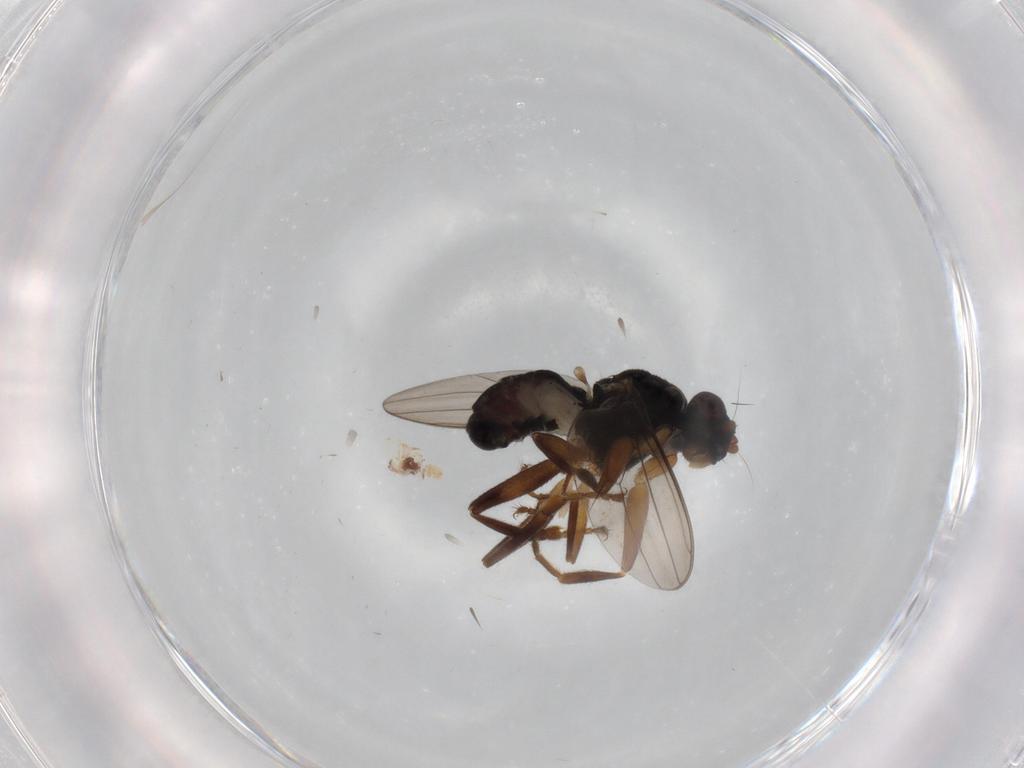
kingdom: Animalia
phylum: Arthropoda
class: Insecta
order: Diptera
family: Sphaeroceridae
